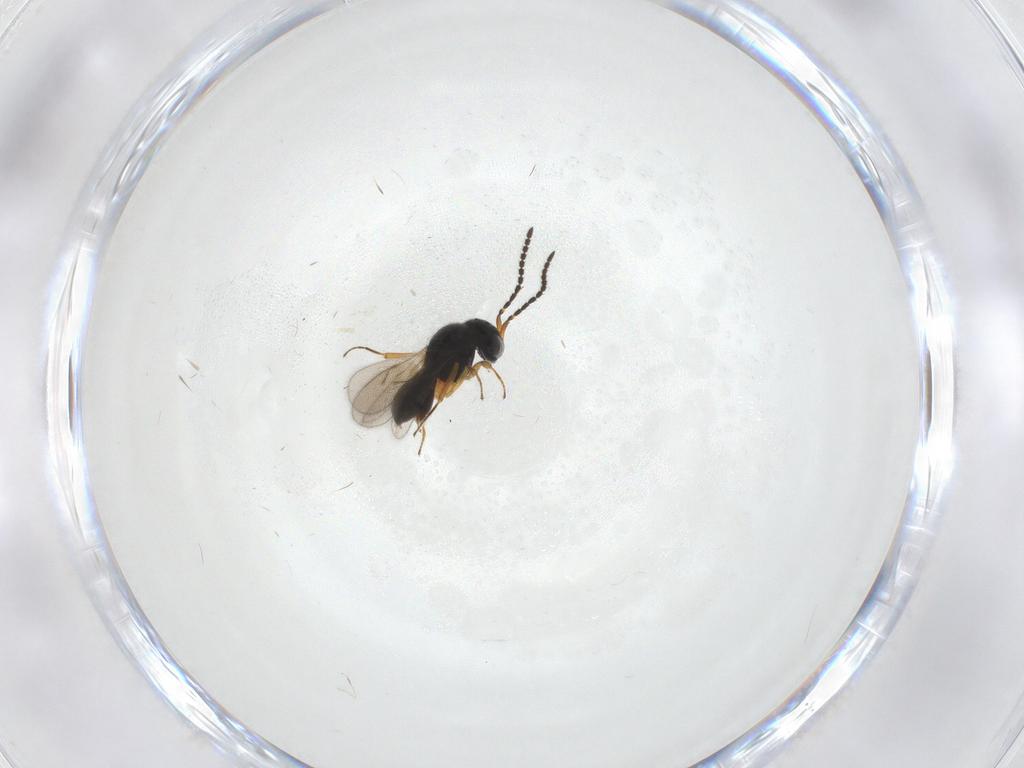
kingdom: Animalia
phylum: Arthropoda
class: Insecta
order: Hymenoptera
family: Scelionidae
